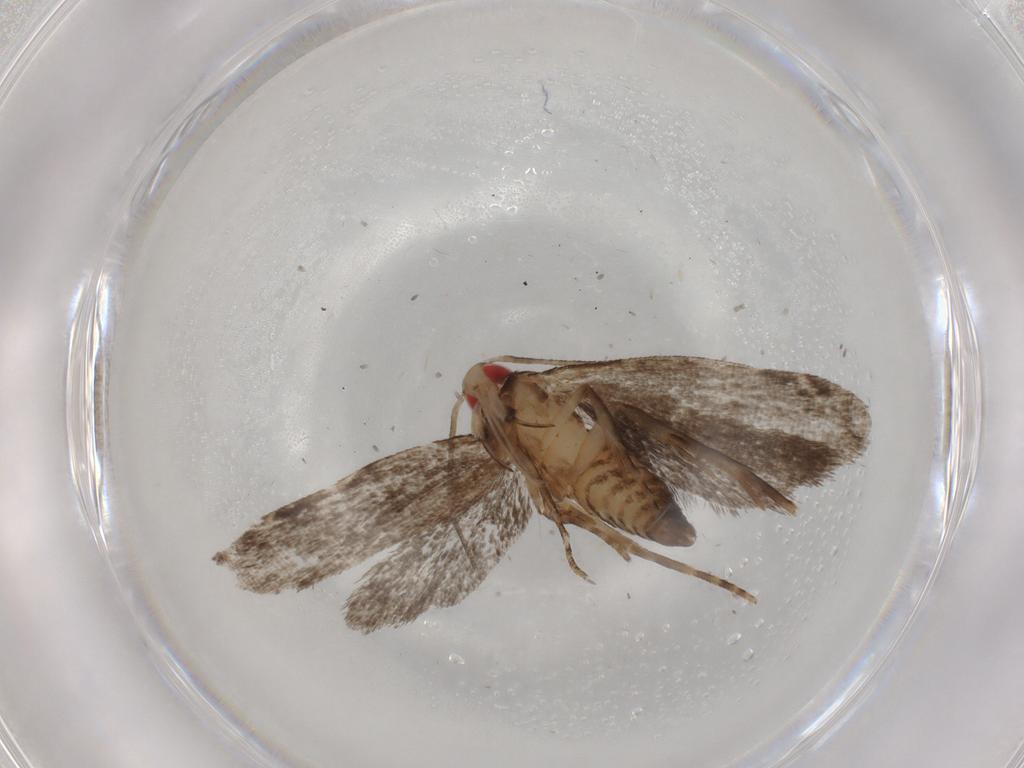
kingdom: Animalia
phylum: Arthropoda
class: Insecta
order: Lepidoptera
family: Gelechiidae
